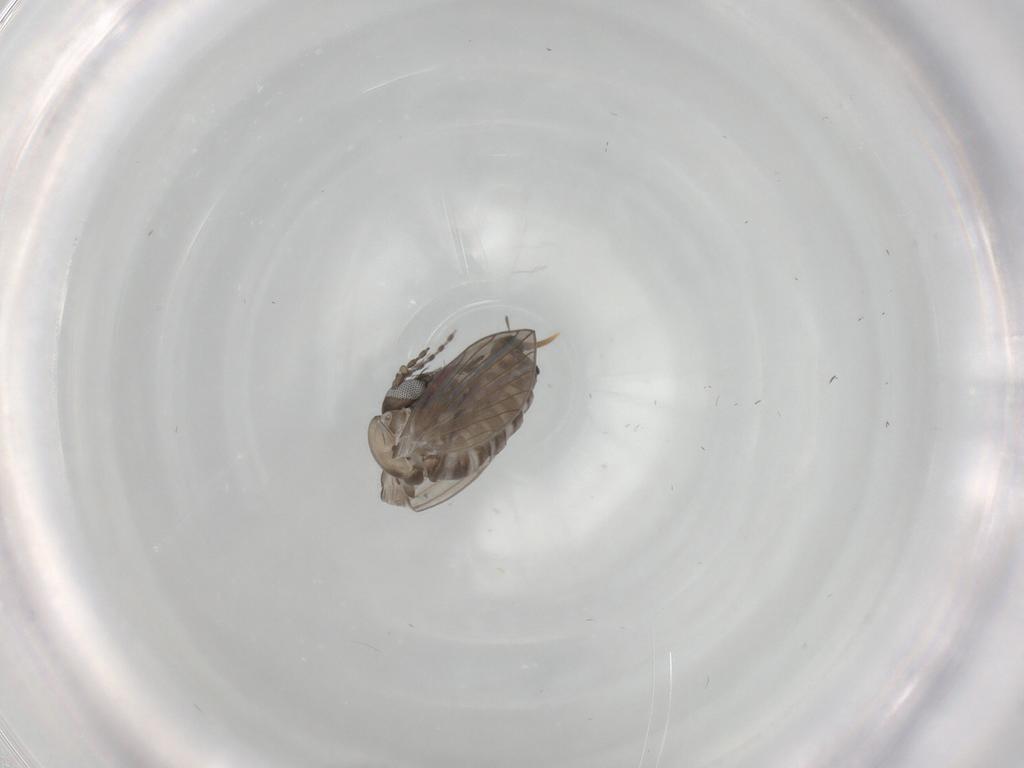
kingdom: Animalia
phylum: Arthropoda
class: Insecta
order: Diptera
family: Psychodidae
